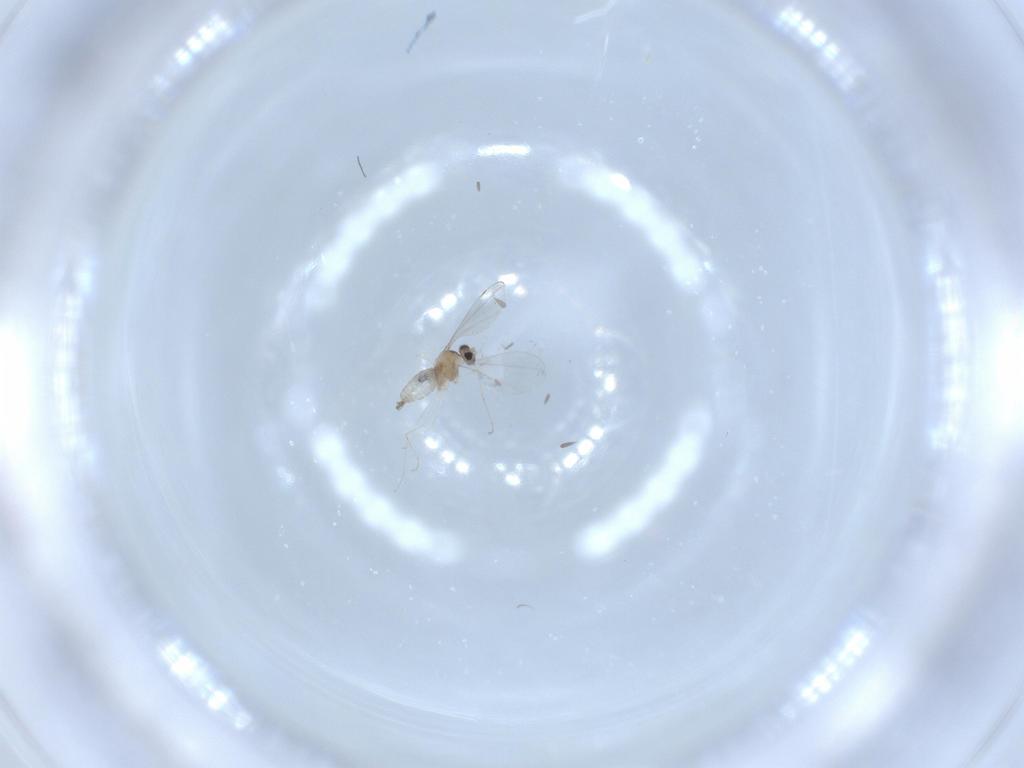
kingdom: Animalia
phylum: Arthropoda
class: Insecta
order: Diptera
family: Cecidomyiidae
